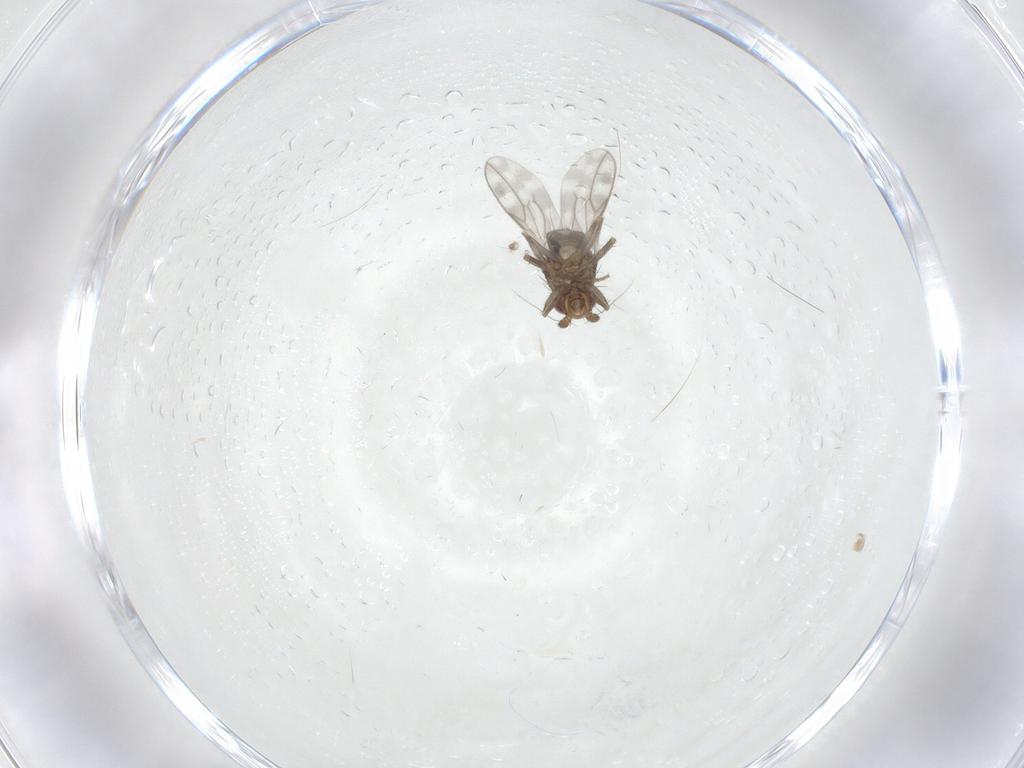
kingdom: Animalia
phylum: Arthropoda
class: Insecta
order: Diptera
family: Sphaeroceridae
